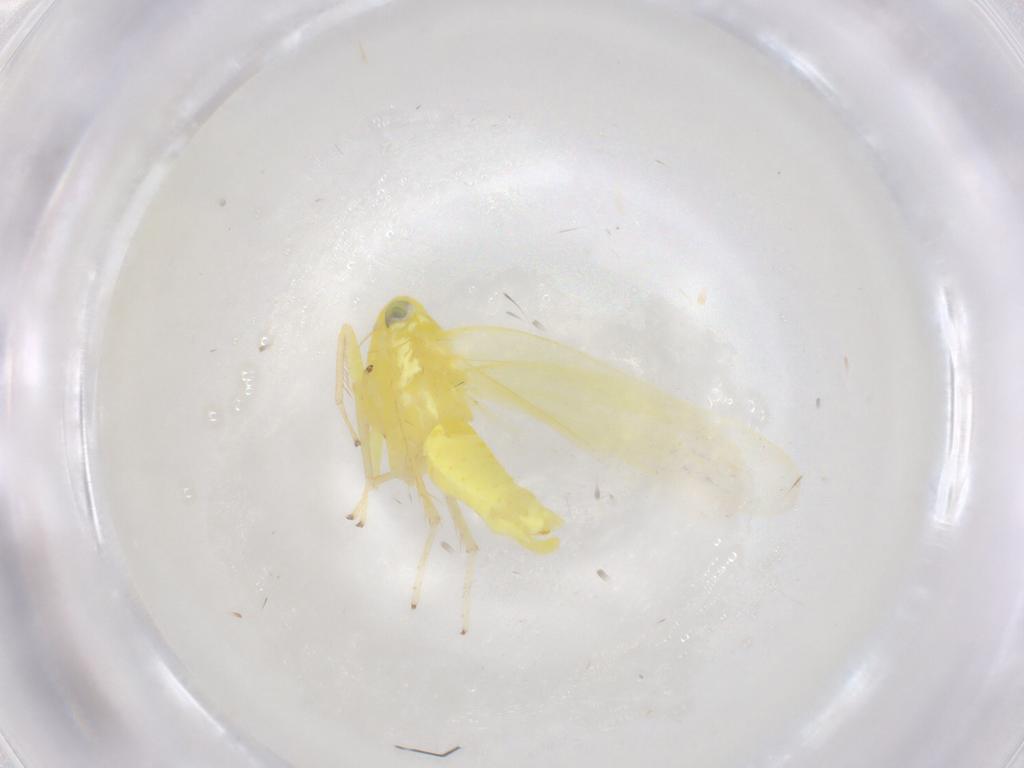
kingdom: Animalia
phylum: Arthropoda
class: Insecta
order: Hemiptera
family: Cicadellidae
